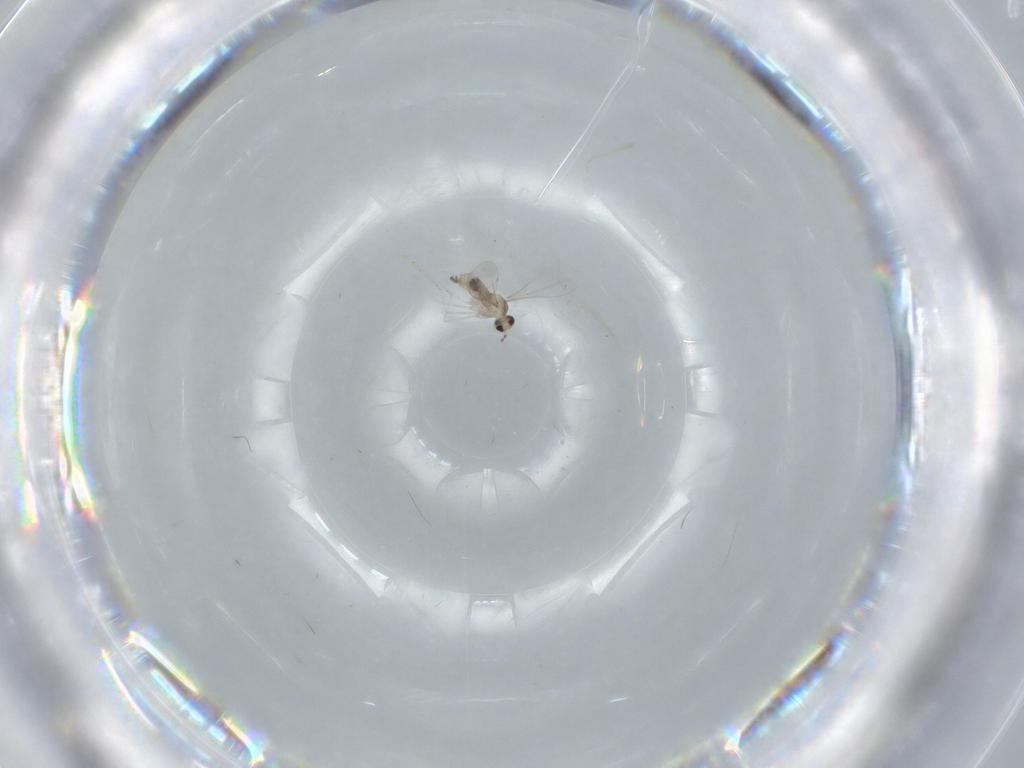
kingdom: Animalia
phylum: Arthropoda
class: Insecta
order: Diptera
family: Cecidomyiidae
